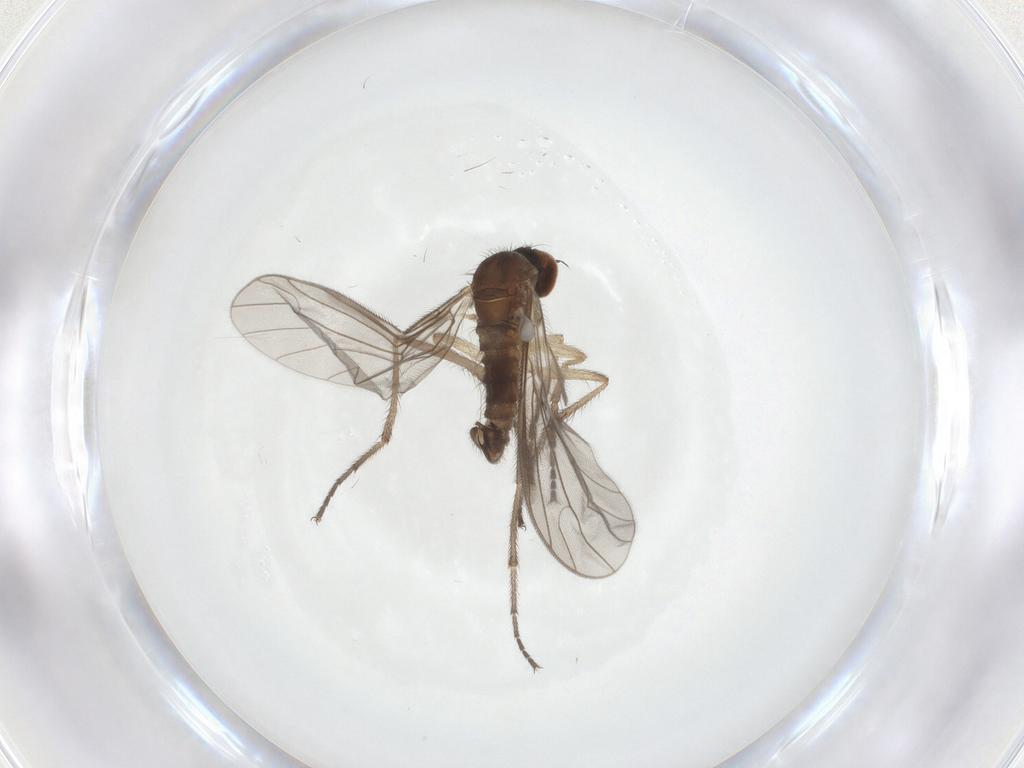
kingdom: Animalia
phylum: Arthropoda
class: Insecta
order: Diptera
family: Empididae
